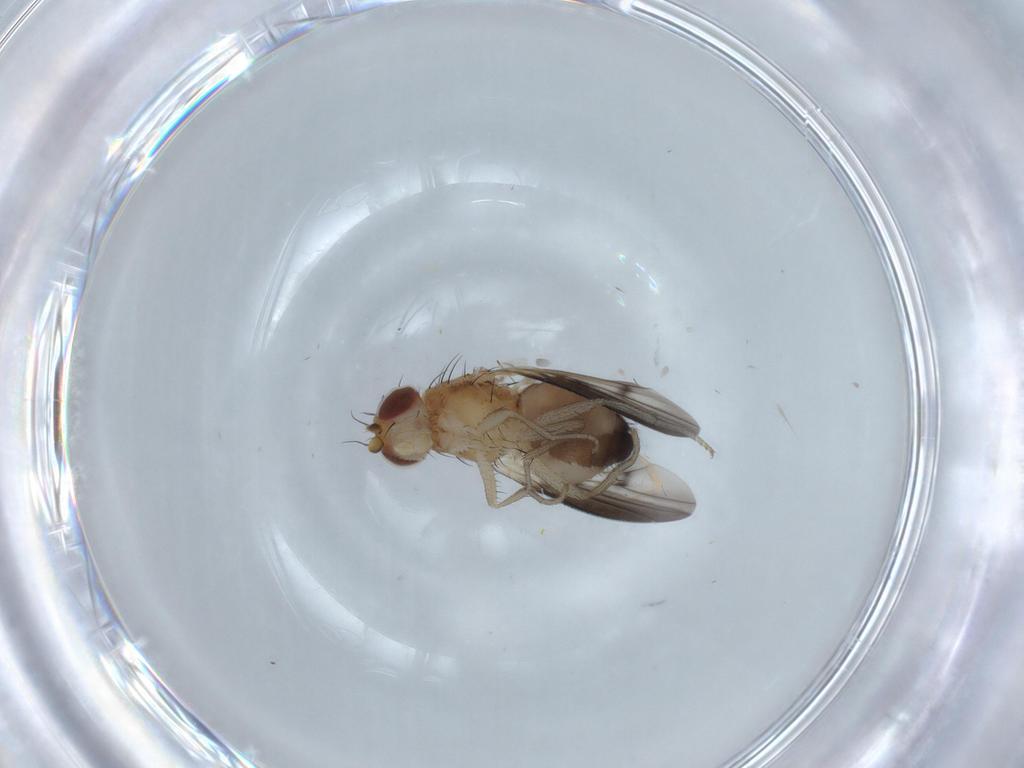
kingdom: Animalia
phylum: Arthropoda
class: Insecta
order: Diptera
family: Heleomyzidae
